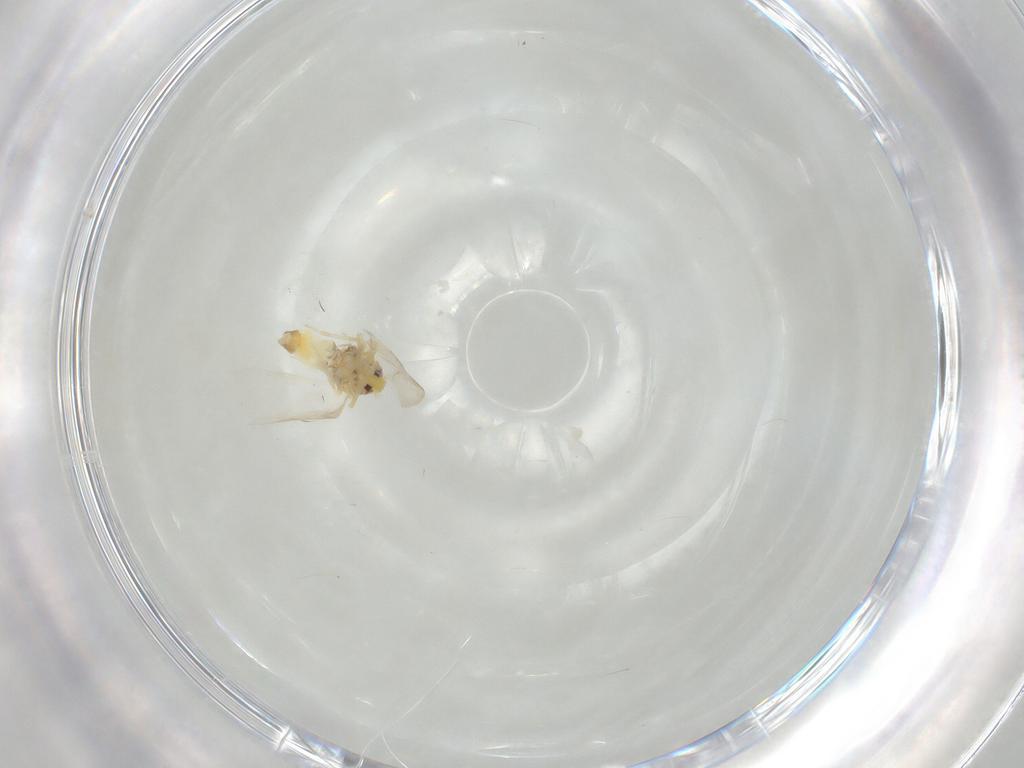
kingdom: Animalia
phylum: Arthropoda
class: Insecta
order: Hemiptera
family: Aleyrodidae
